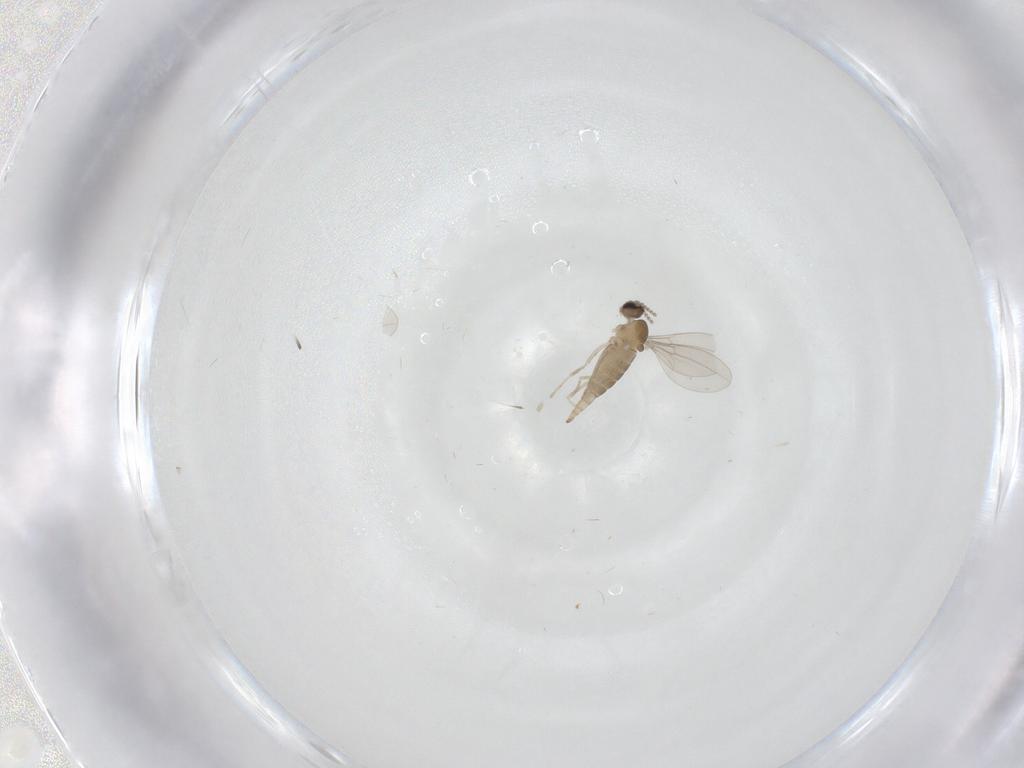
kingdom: Animalia
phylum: Arthropoda
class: Insecta
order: Diptera
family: Cecidomyiidae
